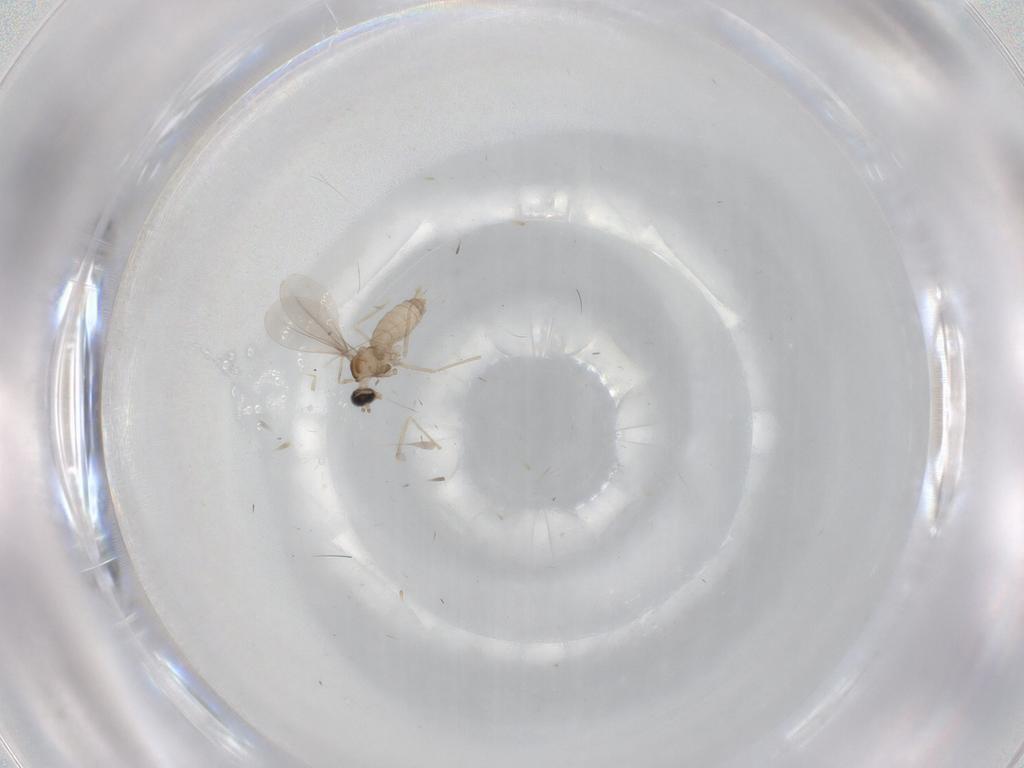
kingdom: Animalia
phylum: Arthropoda
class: Insecta
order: Diptera
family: Cecidomyiidae
